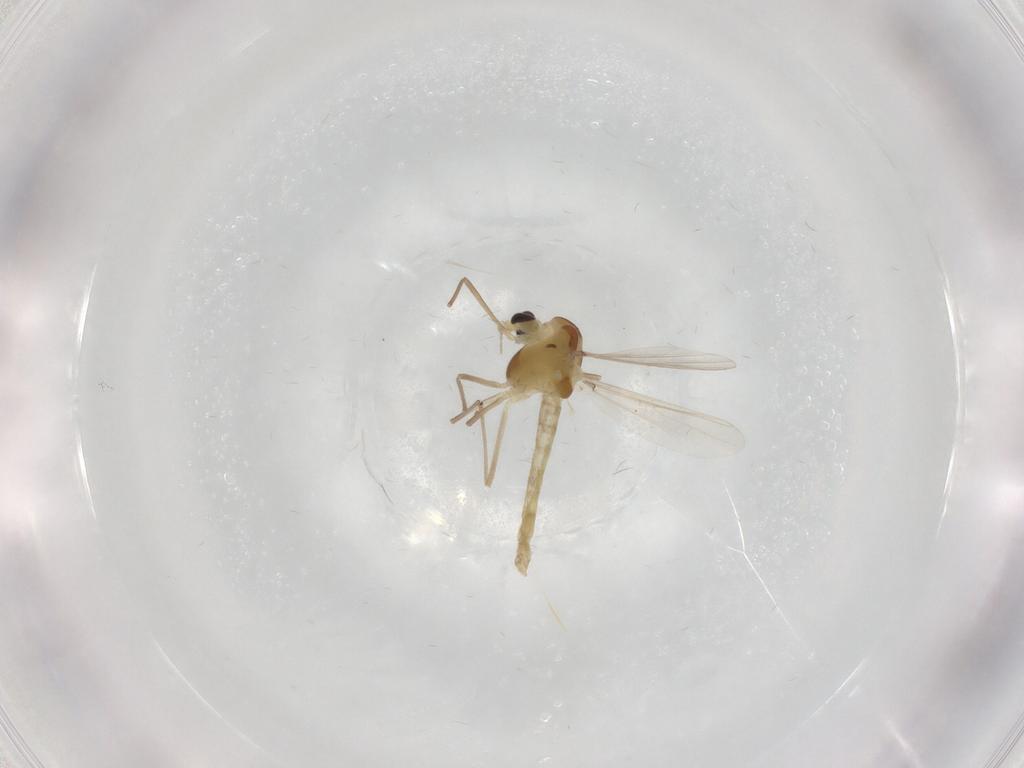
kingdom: Animalia
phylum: Arthropoda
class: Insecta
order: Diptera
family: Chironomidae
